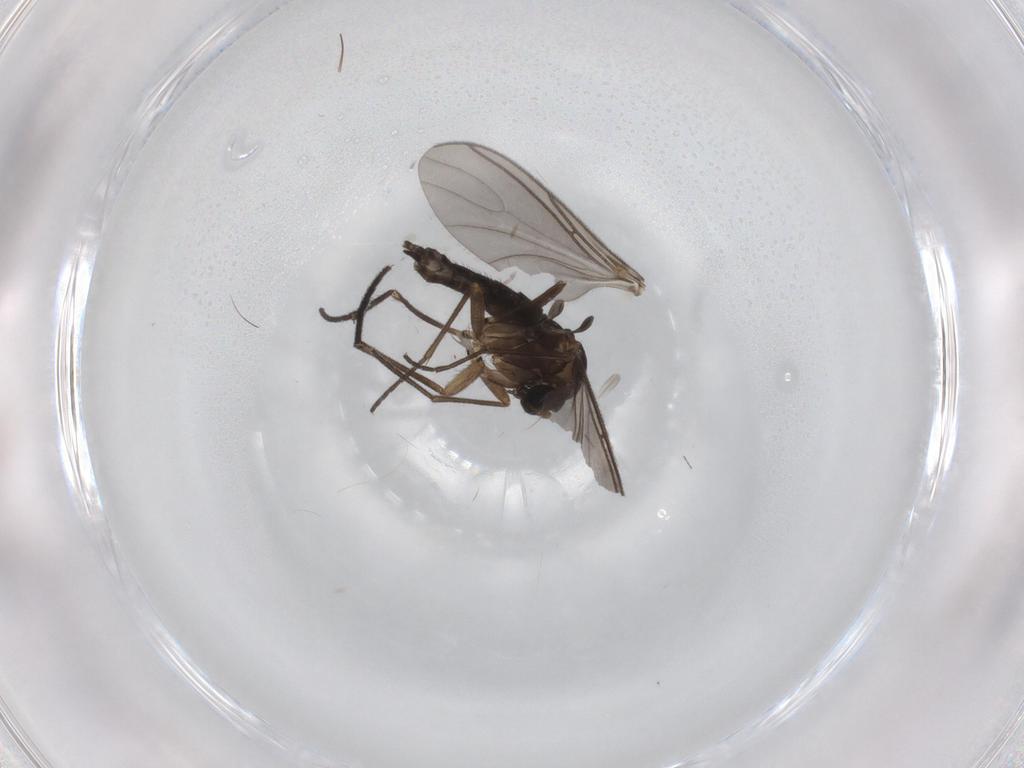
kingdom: Animalia
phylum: Arthropoda
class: Insecta
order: Diptera
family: Sciaridae
